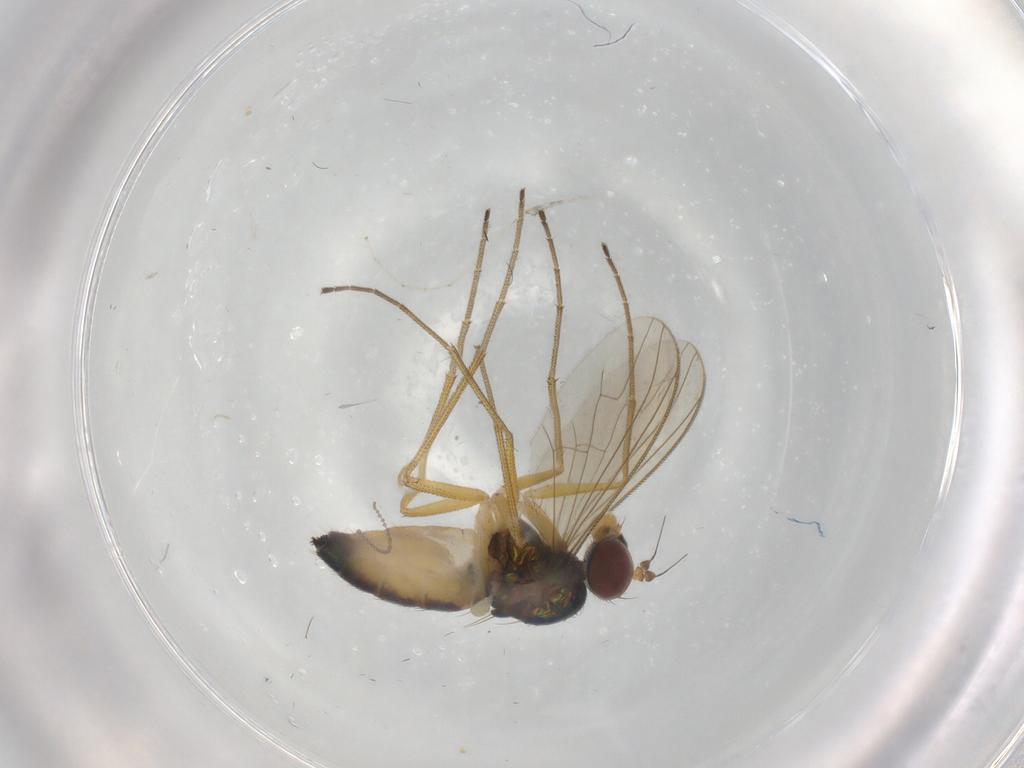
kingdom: Animalia
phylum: Arthropoda
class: Insecta
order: Diptera
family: Dolichopodidae
